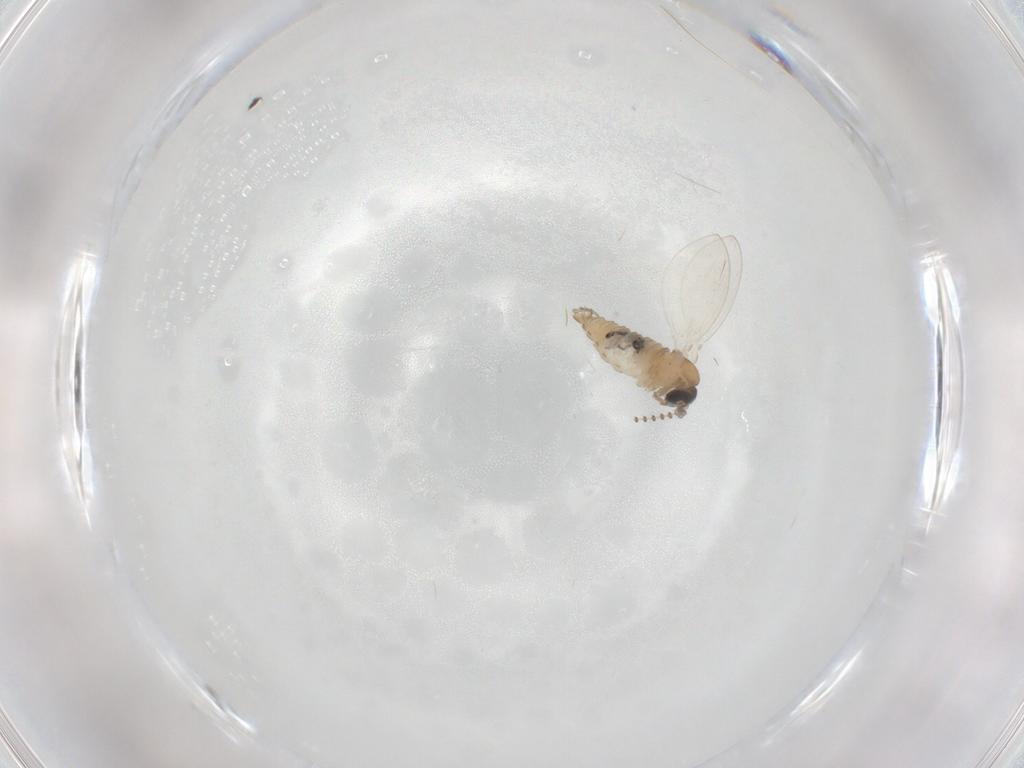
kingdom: Animalia
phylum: Arthropoda
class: Insecta
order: Diptera
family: Psychodidae
